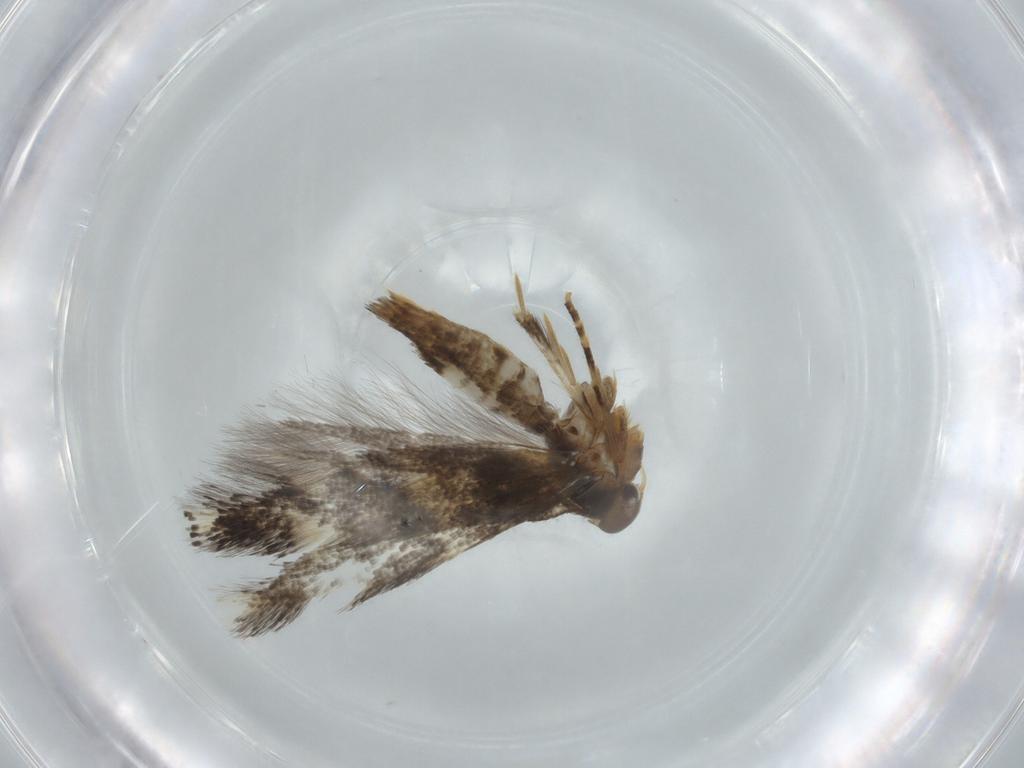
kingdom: Animalia
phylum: Arthropoda
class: Insecta
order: Lepidoptera
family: Elachistidae
